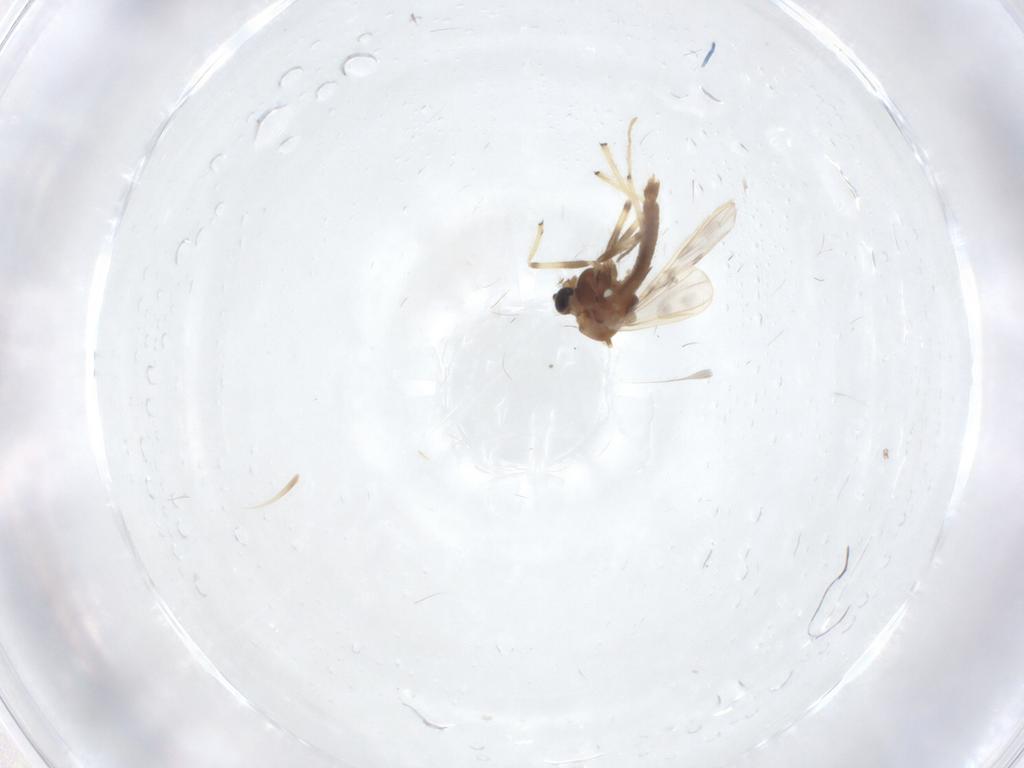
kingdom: Animalia
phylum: Arthropoda
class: Insecta
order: Diptera
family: Chironomidae
